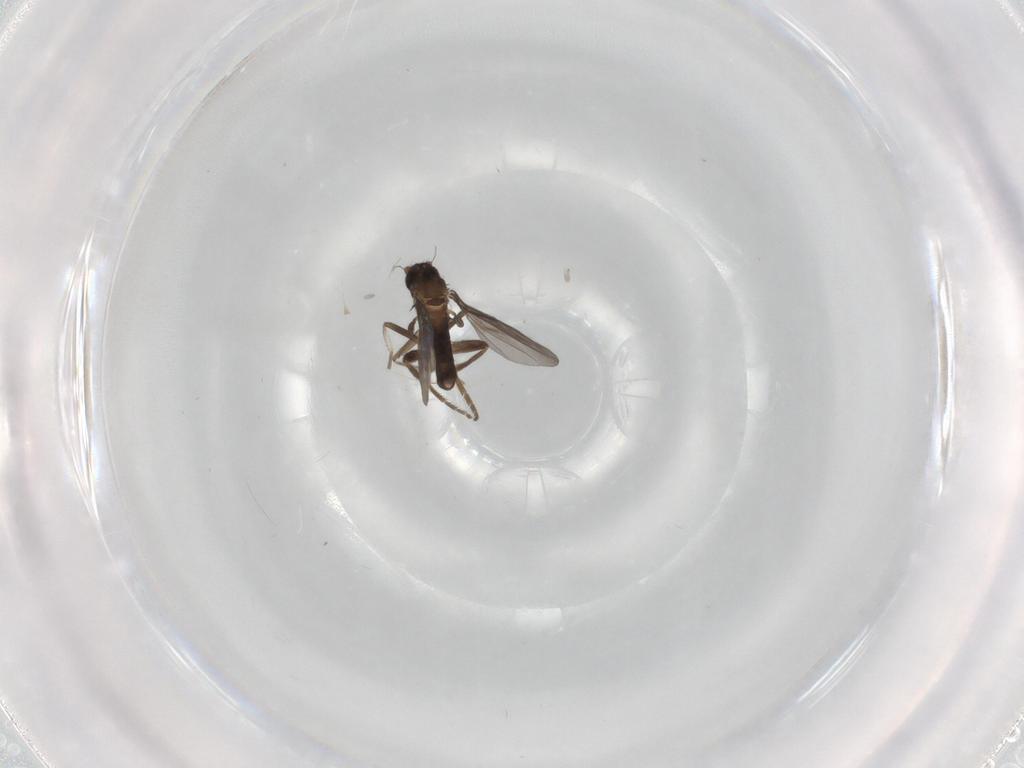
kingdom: Animalia
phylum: Arthropoda
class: Insecta
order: Diptera
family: Phoridae
